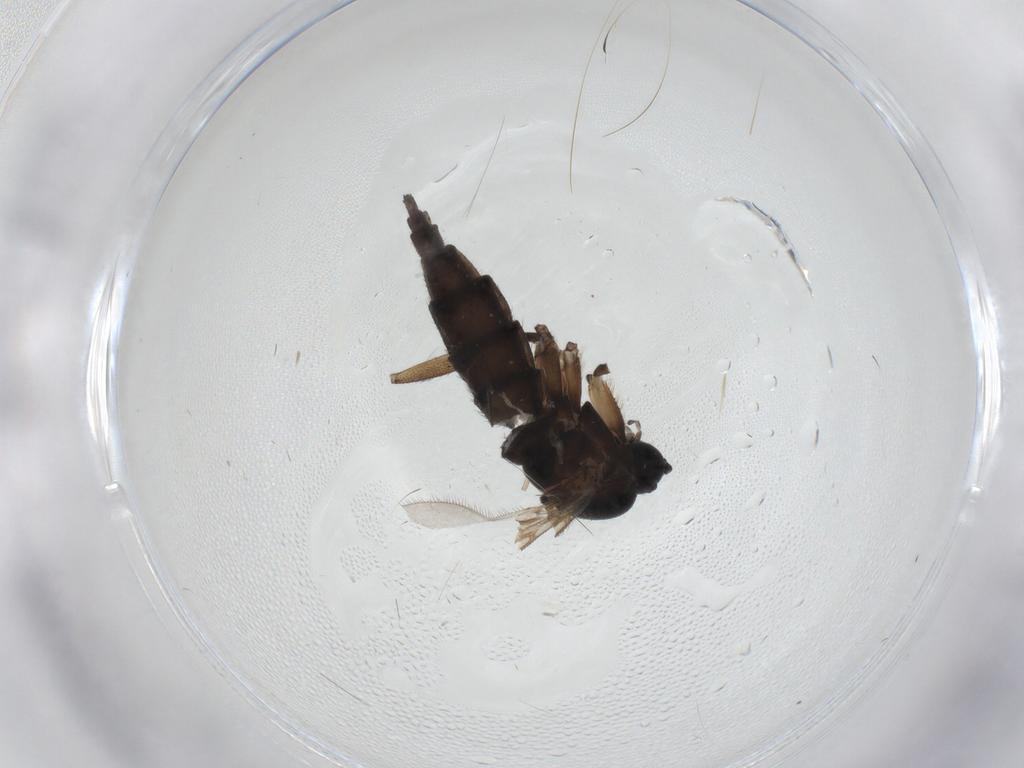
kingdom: Animalia
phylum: Arthropoda
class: Insecta
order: Diptera
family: Sciaridae
